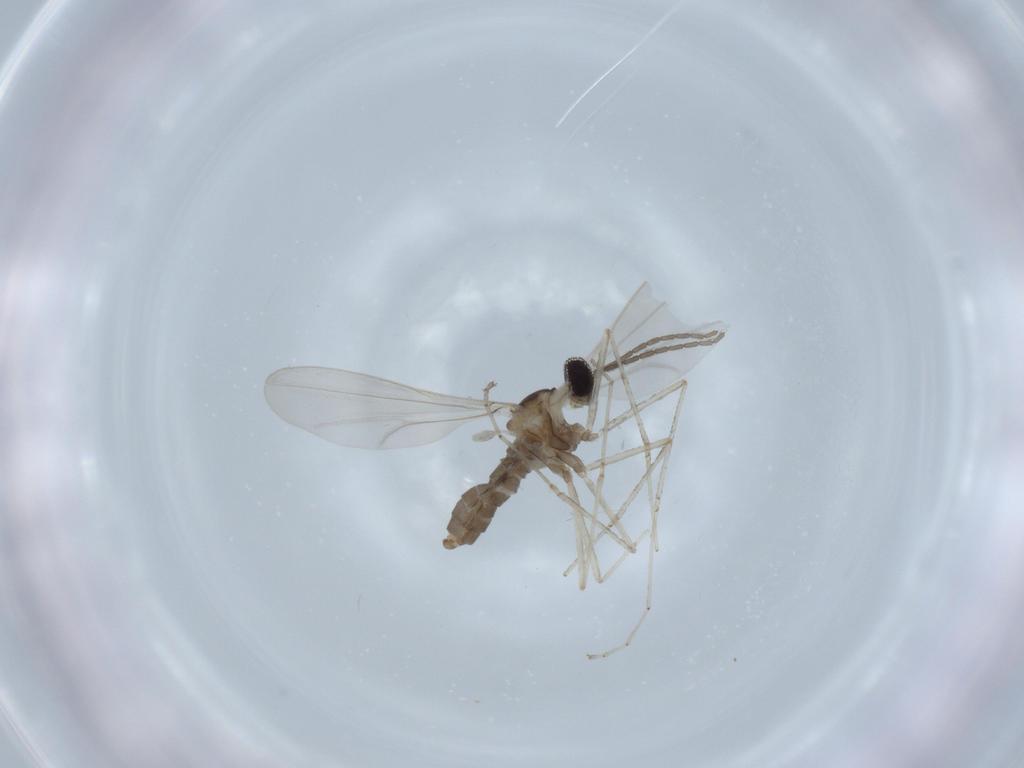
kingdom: Animalia
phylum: Arthropoda
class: Insecta
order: Diptera
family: Cecidomyiidae
